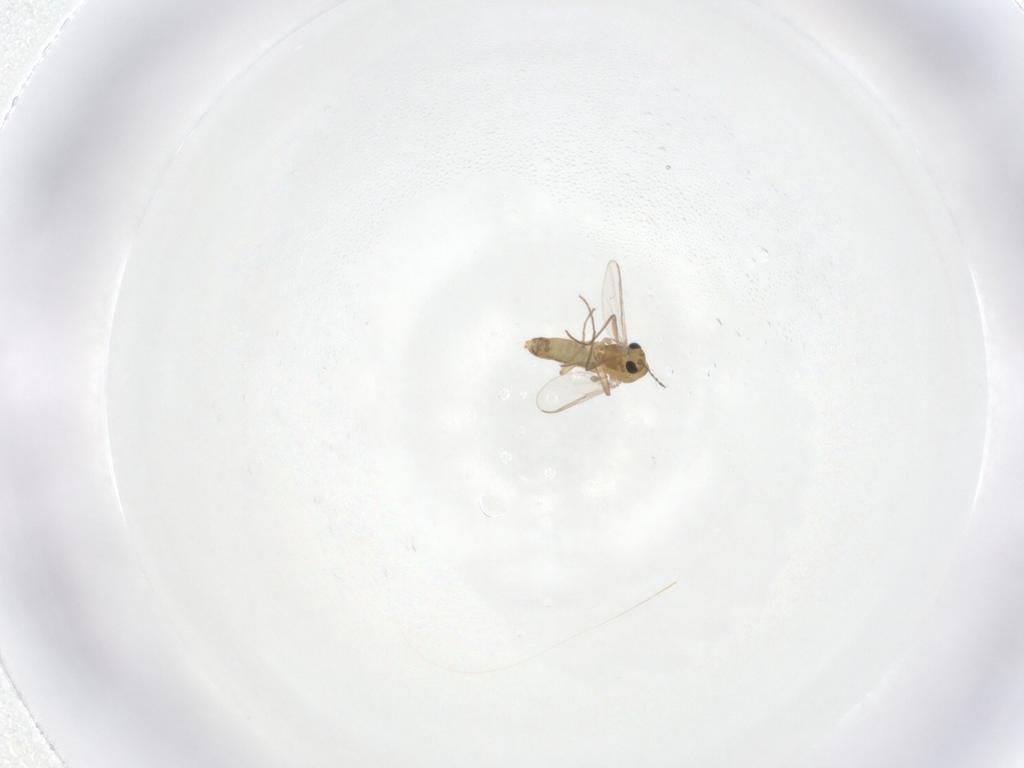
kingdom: Animalia
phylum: Arthropoda
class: Insecta
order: Diptera
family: Chironomidae
